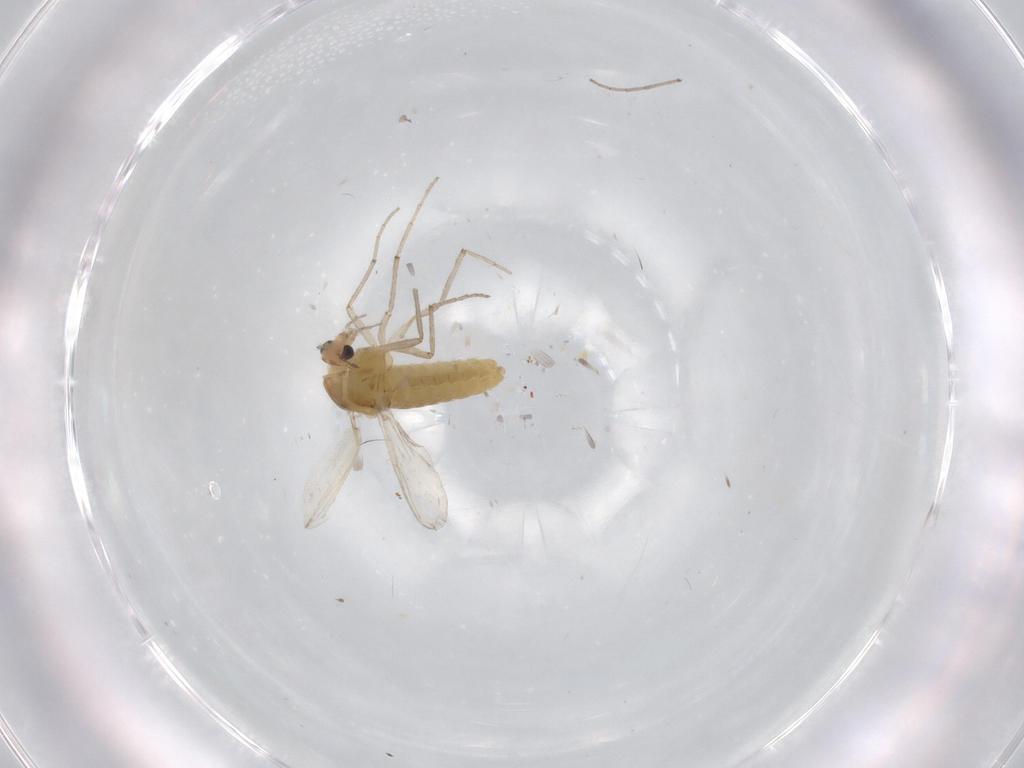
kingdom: Animalia
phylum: Arthropoda
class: Insecta
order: Diptera
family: Chironomidae
